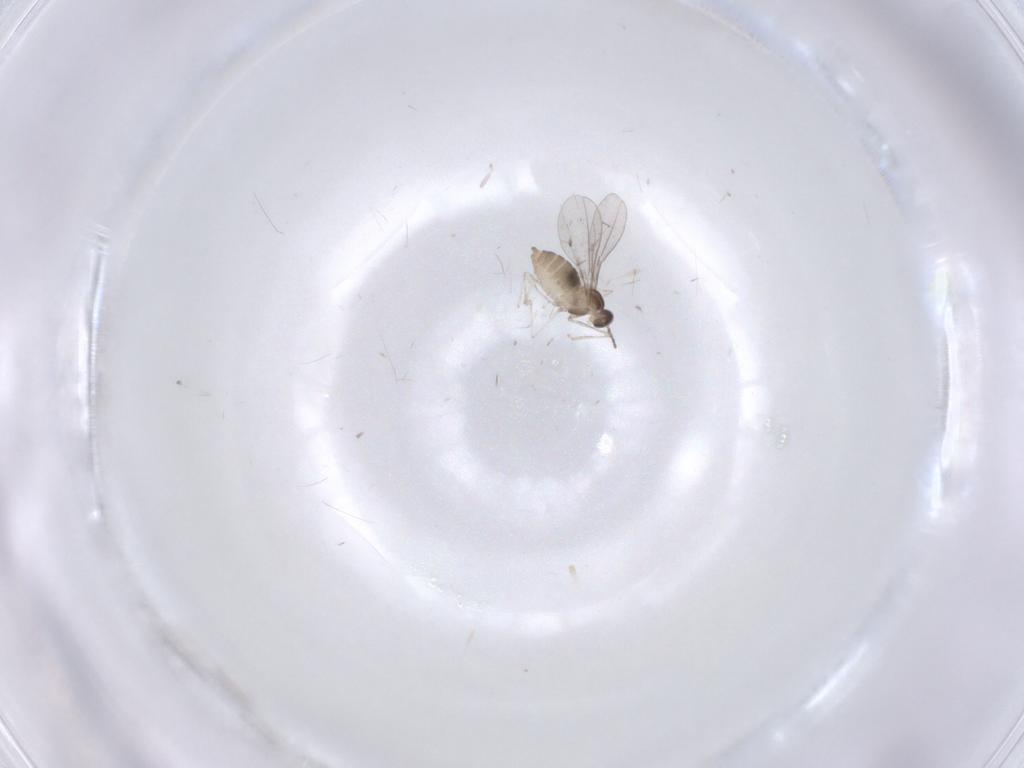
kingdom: Animalia
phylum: Arthropoda
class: Insecta
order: Diptera
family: Cecidomyiidae
